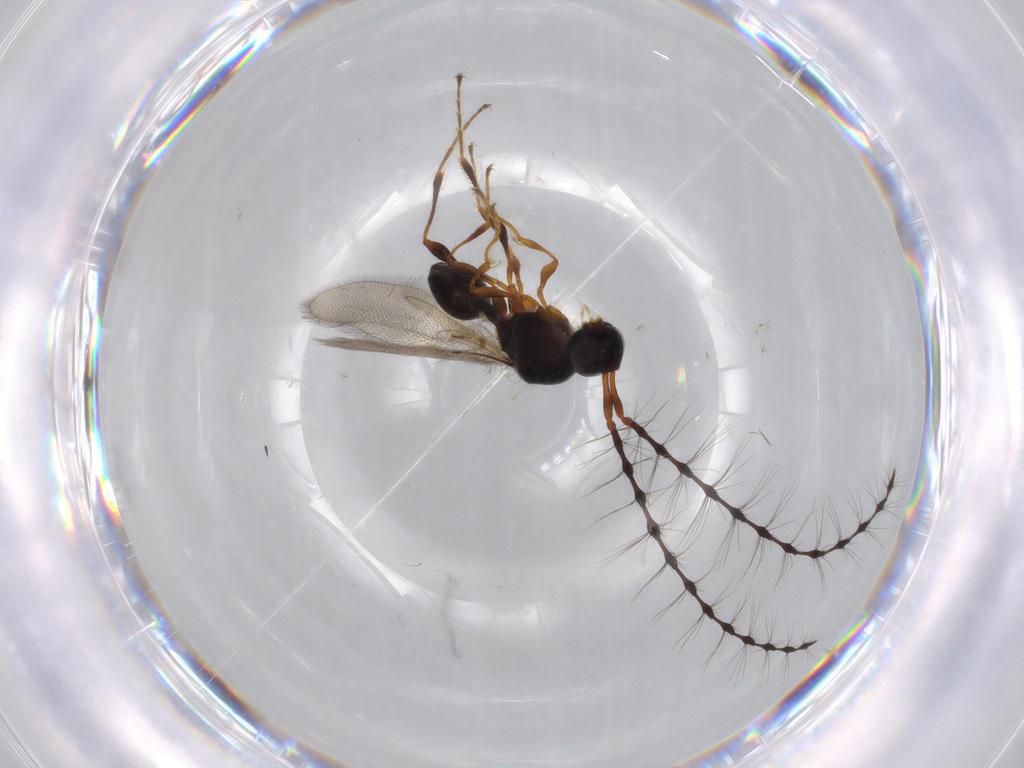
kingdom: Animalia
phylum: Arthropoda
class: Insecta
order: Hymenoptera
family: Diapriidae
